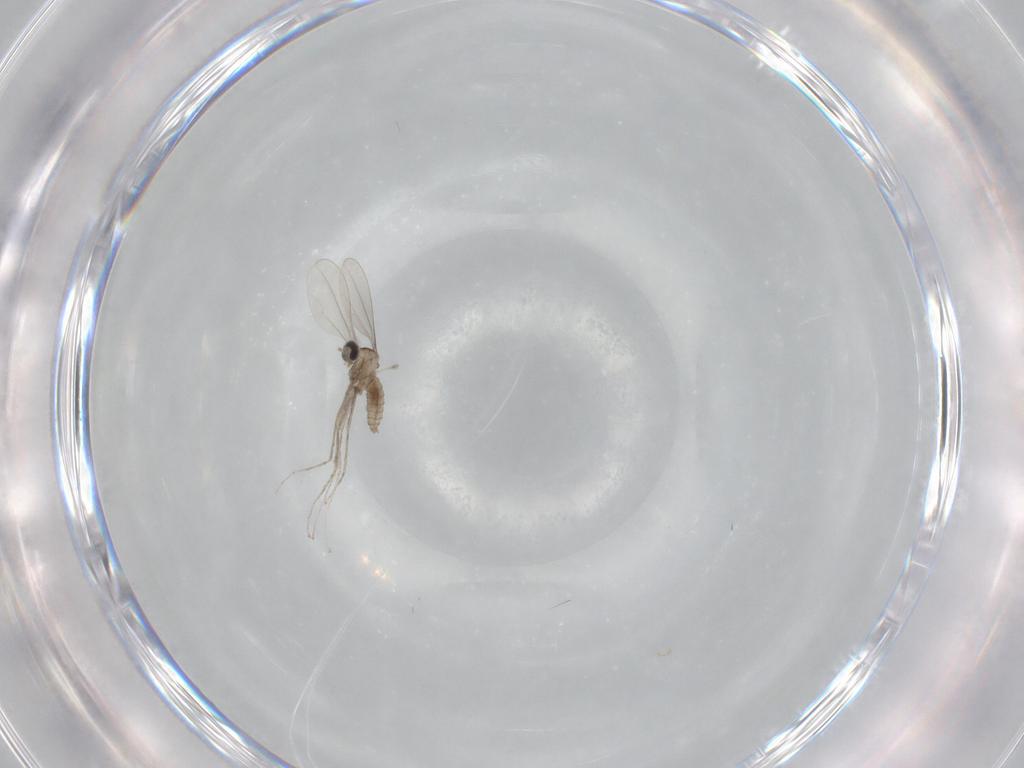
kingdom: Animalia
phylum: Arthropoda
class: Insecta
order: Diptera
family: Cecidomyiidae
